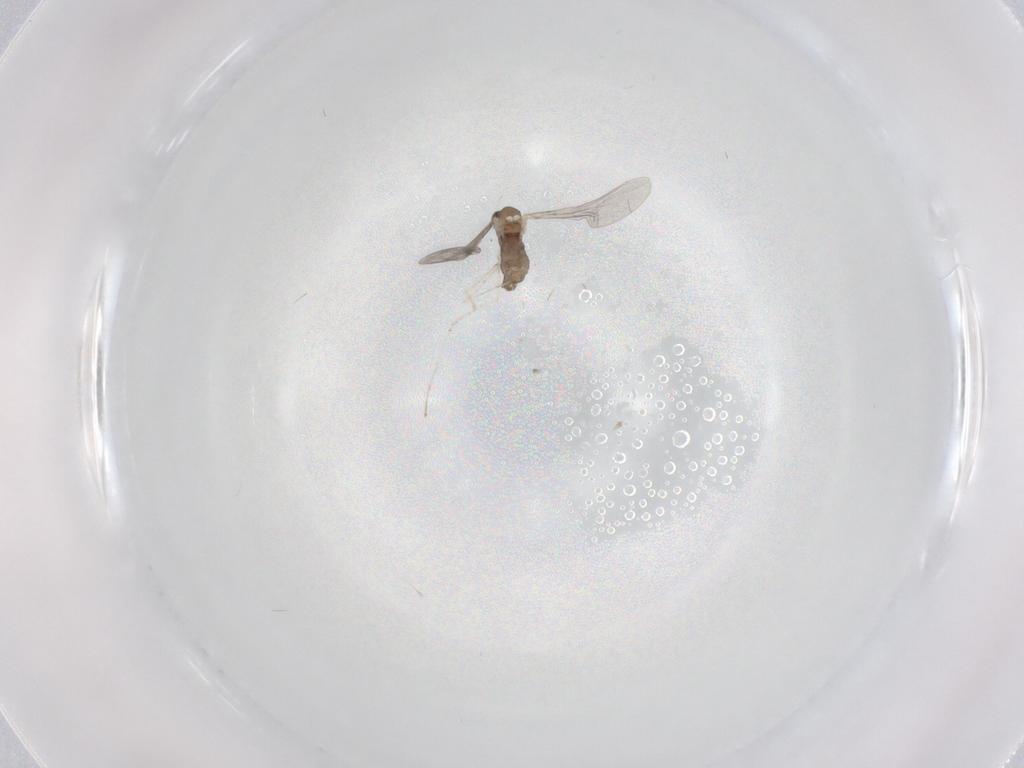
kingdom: Animalia
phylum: Arthropoda
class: Insecta
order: Diptera
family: Cecidomyiidae
